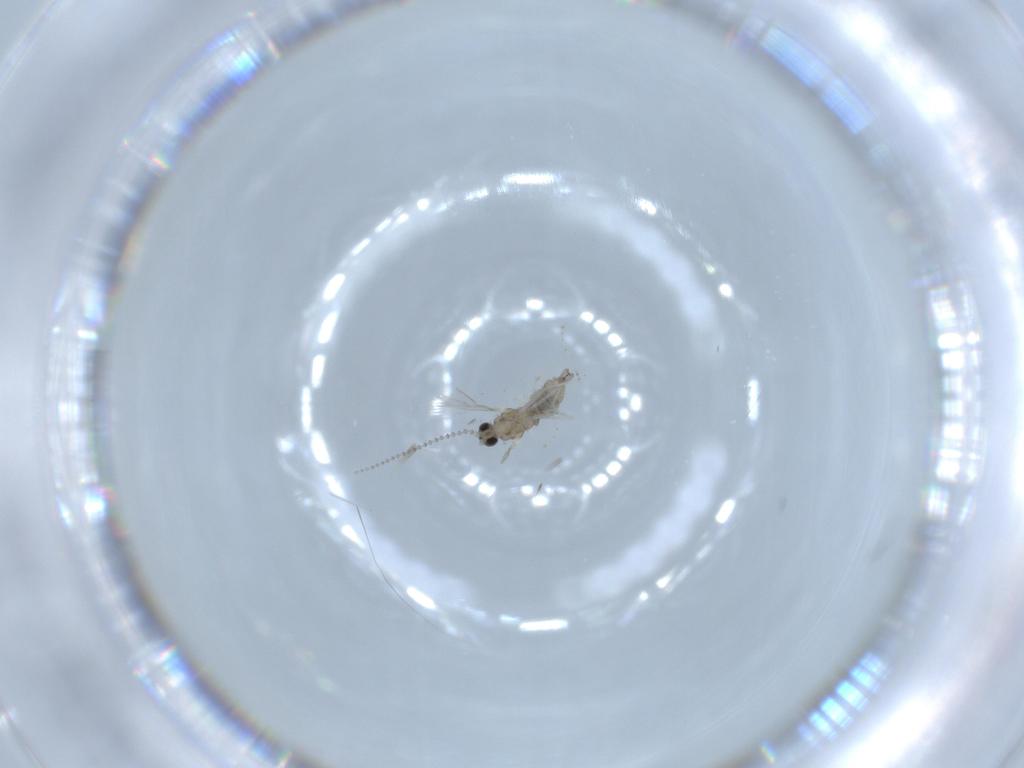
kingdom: Animalia
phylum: Arthropoda
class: Insecta
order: Diptera
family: Cecidomyiidae
